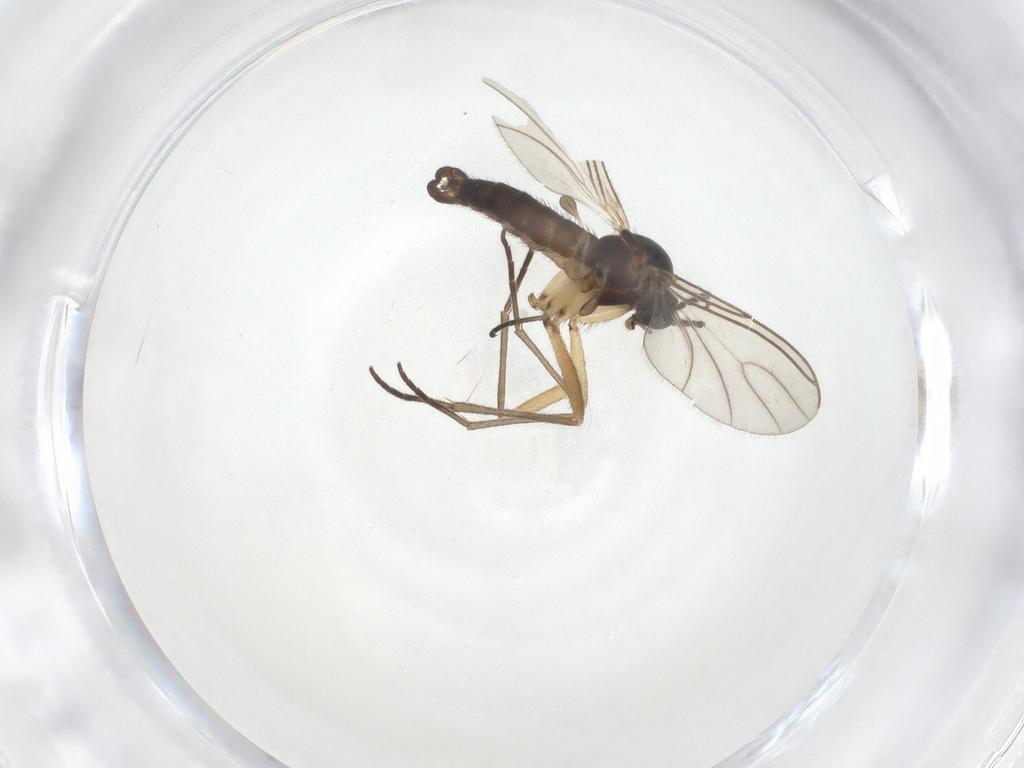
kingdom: Animalia
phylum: Arthropoda
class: Insecta
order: Diptera
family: Sciaridae
